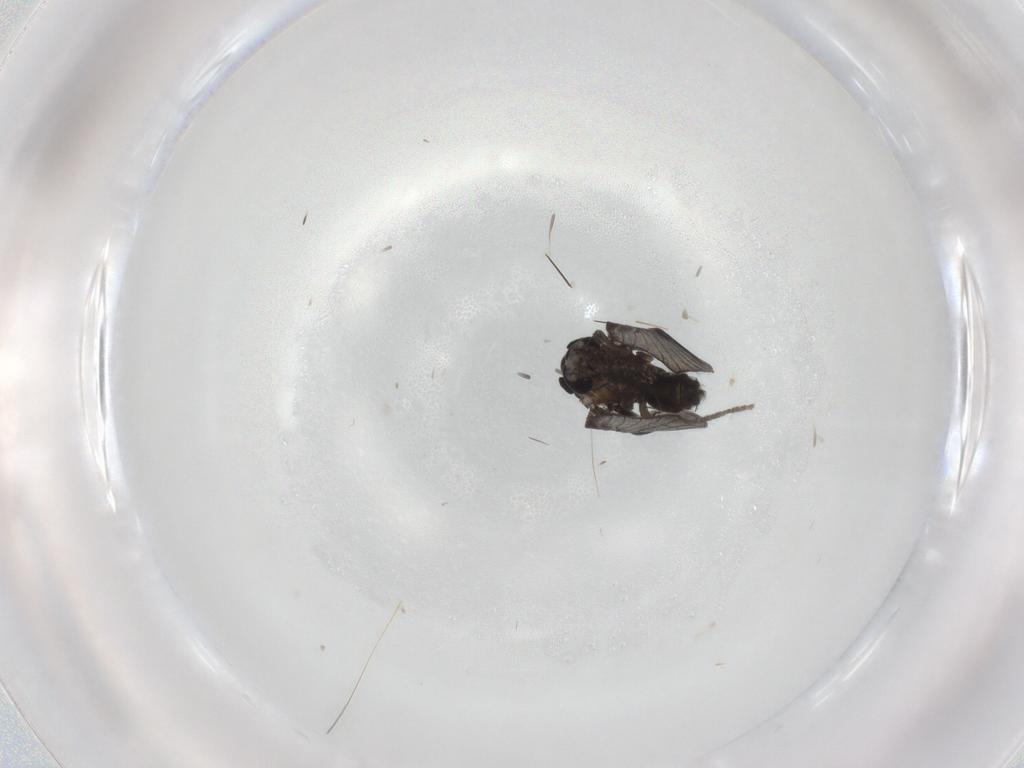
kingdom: Animalia
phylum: Arthropoda
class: Insecta
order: Diptera
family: Psychodidae
